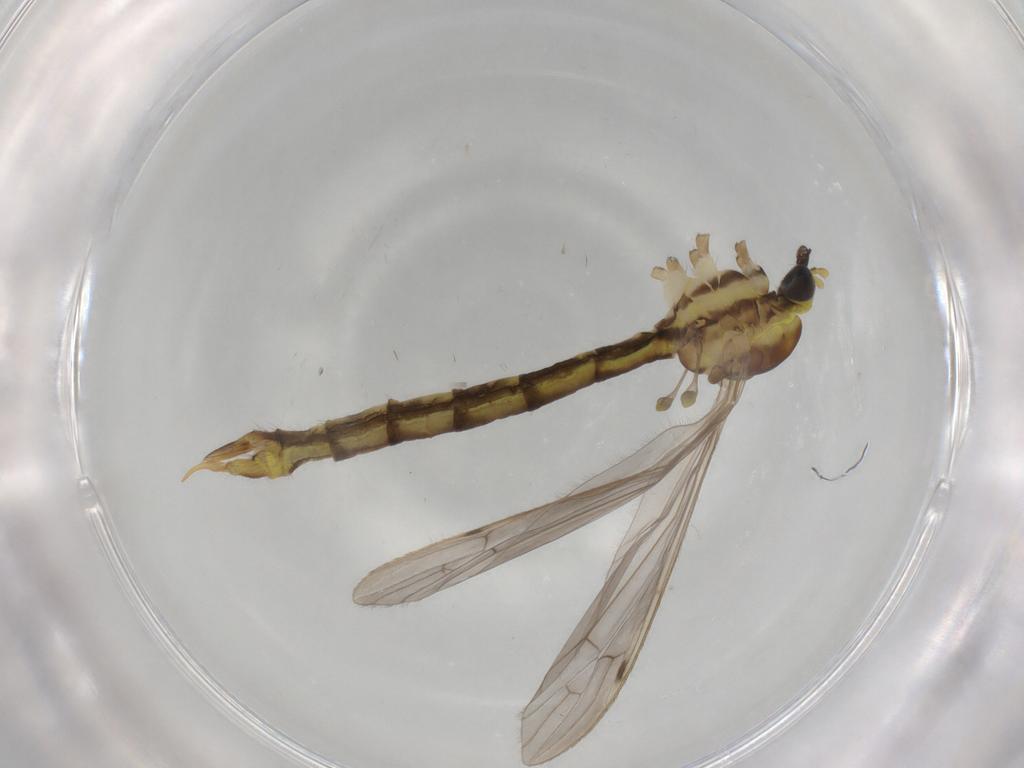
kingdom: Animalia
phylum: Arthropoda
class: Insecta
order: Diptera
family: Limoniidae
